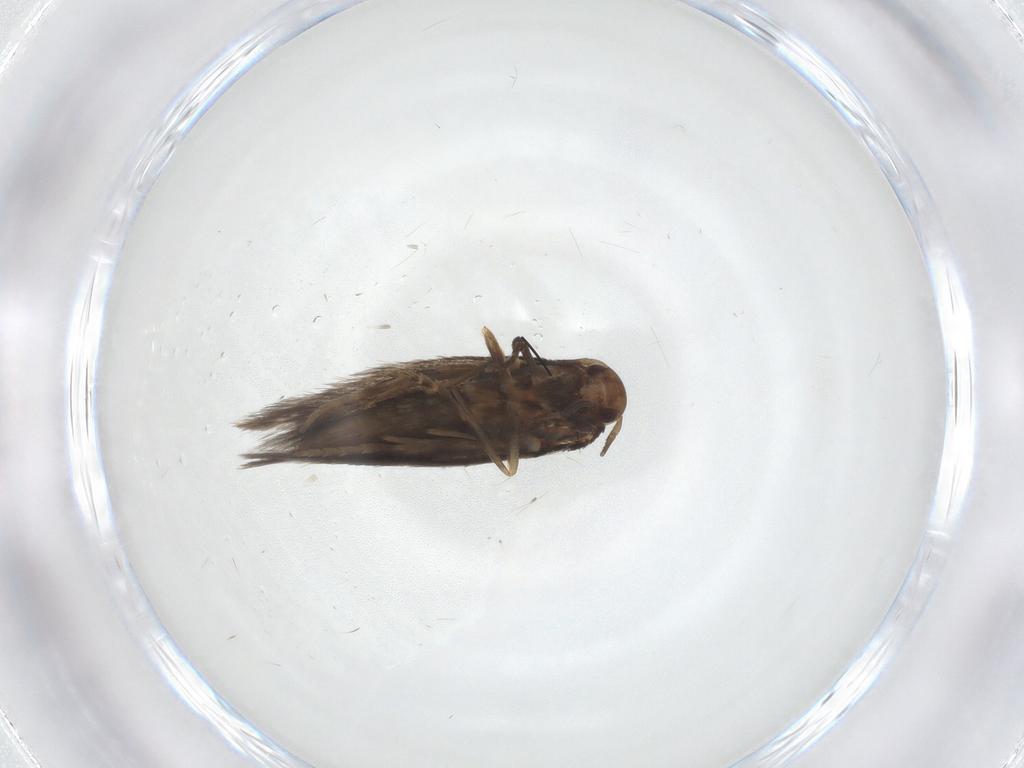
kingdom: Animalia
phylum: Arthropoda
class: Insecta
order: Lepidoptera
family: Elachistidae
